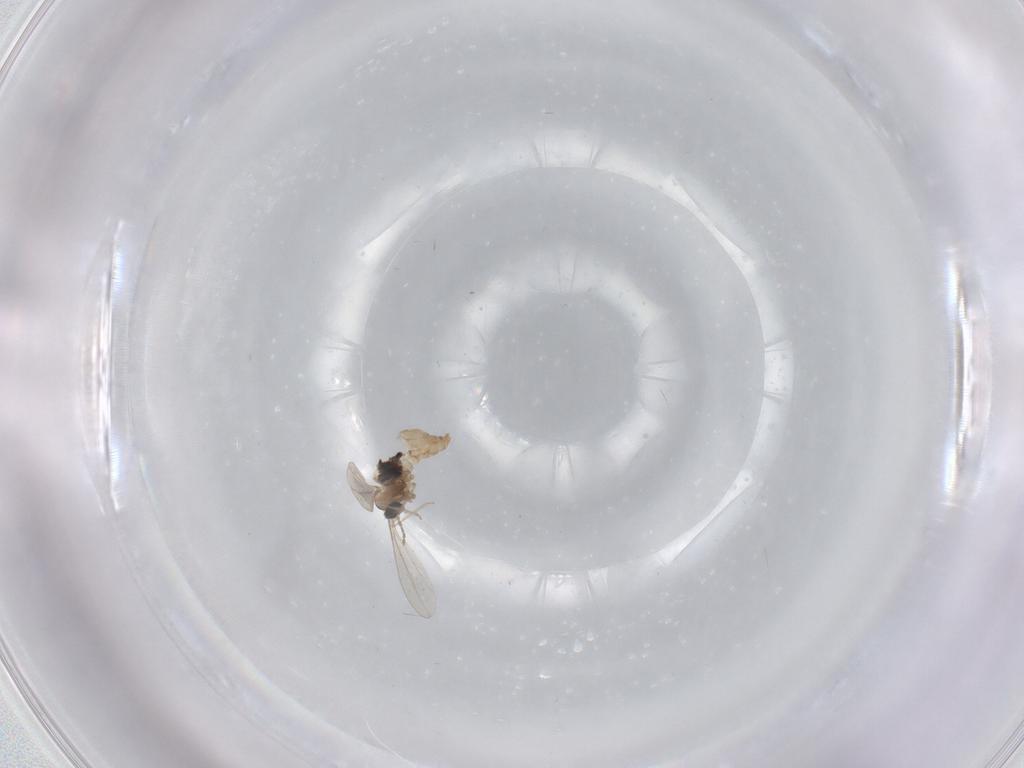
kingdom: Animalia
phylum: Arthropoda
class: Insecta
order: Diptera
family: Cecidomyiidae
